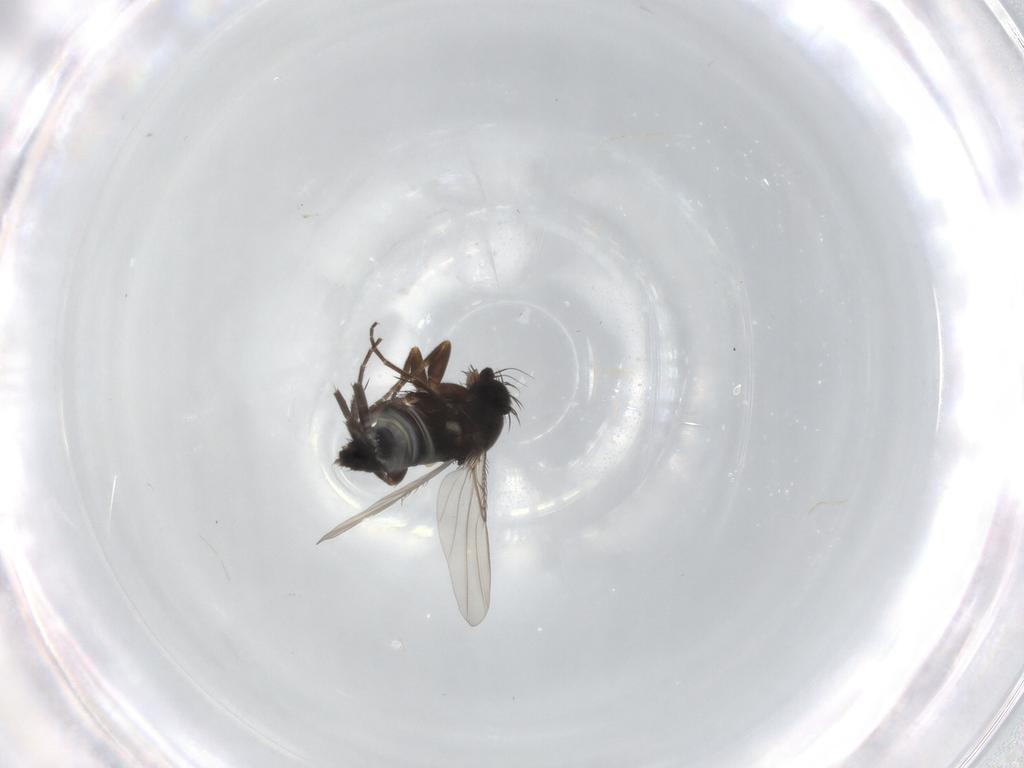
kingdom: Animalia
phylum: Arthropoda
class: Insecta
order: Diptera
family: Phoridae
